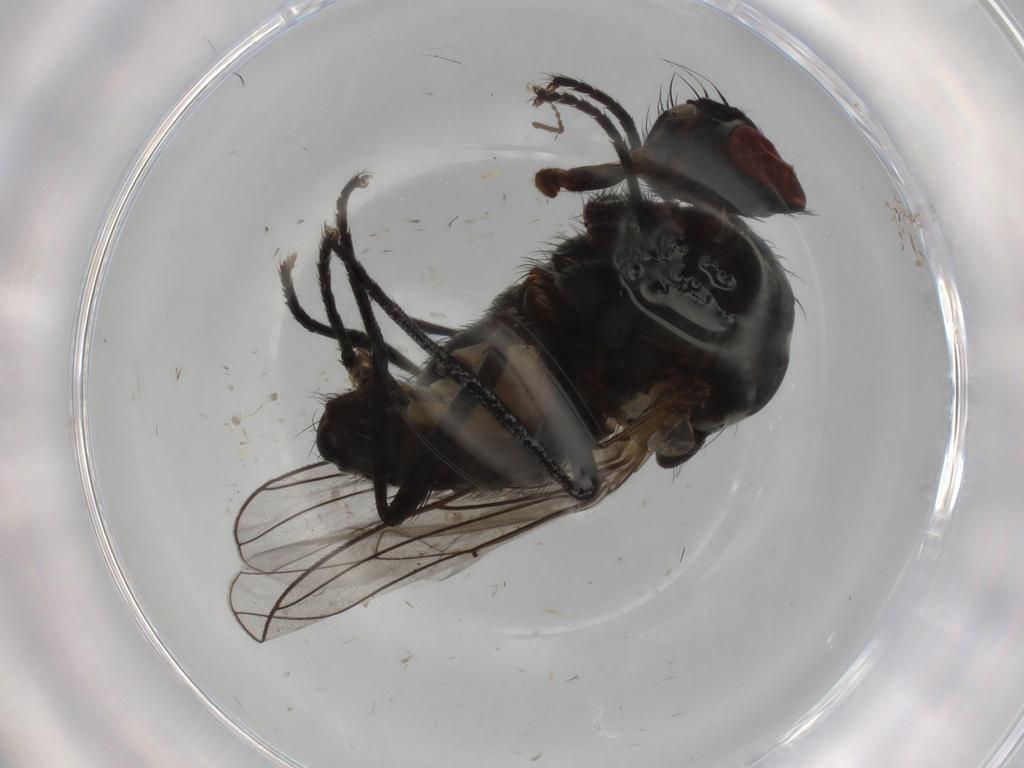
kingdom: Animalia
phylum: Arthropoda
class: Insecta
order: Diptera
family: Anthomyiidae
